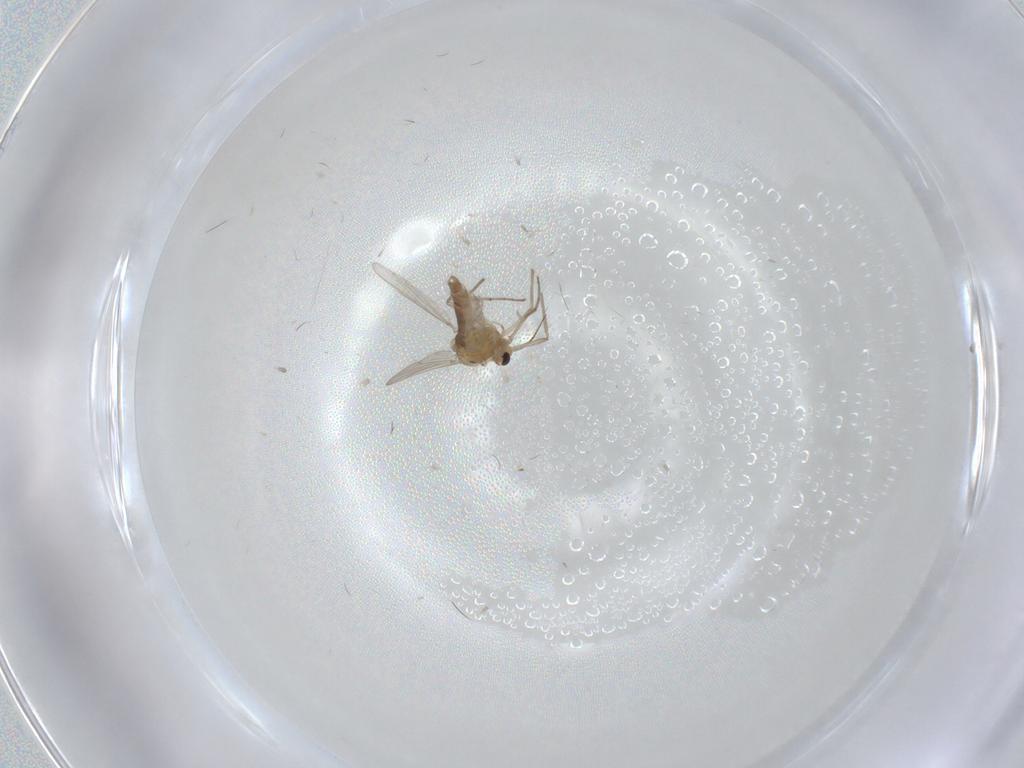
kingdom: Animalia
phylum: Arthropoda
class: Insecta
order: Diptera
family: Chironomidae
